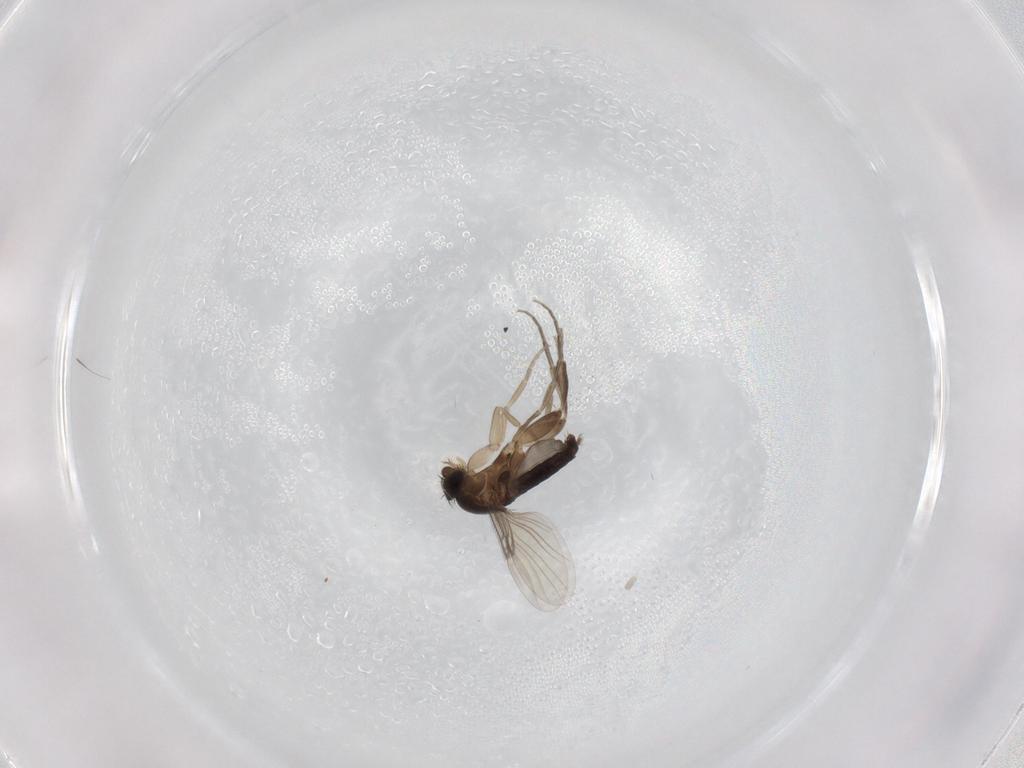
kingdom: Animalia
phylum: Arthropoda
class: Insecta
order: Diptera
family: Phoridae
